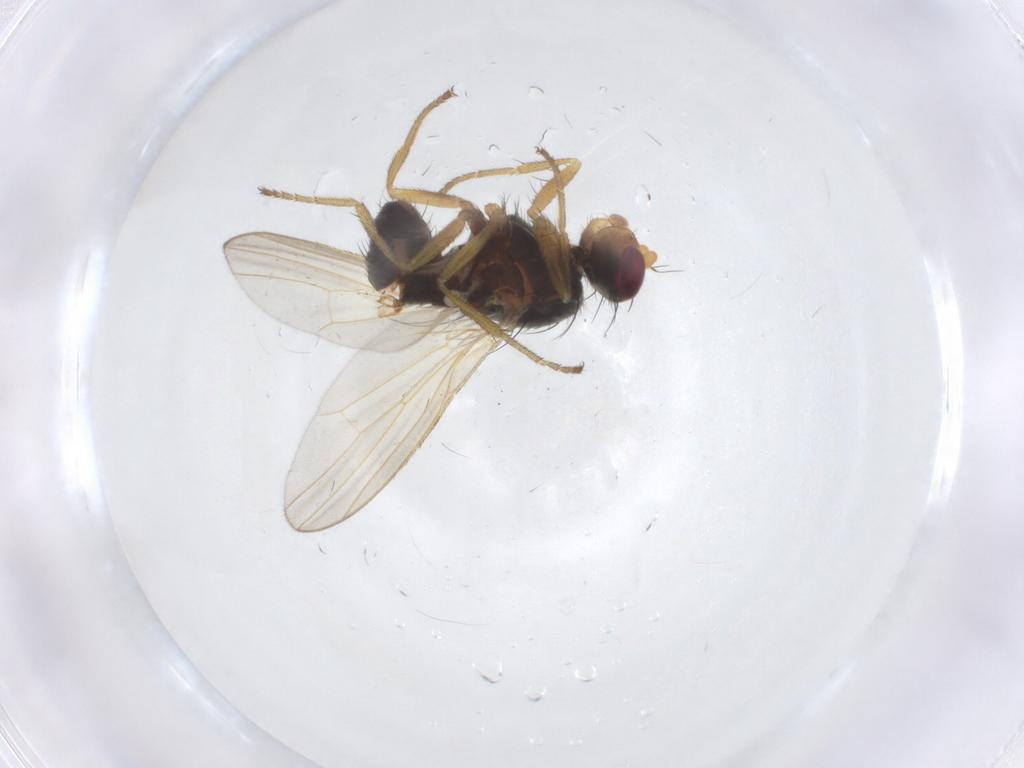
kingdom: Animalia
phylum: Arthropoda
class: Insecta
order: Diptera
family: Heleomyzidae
